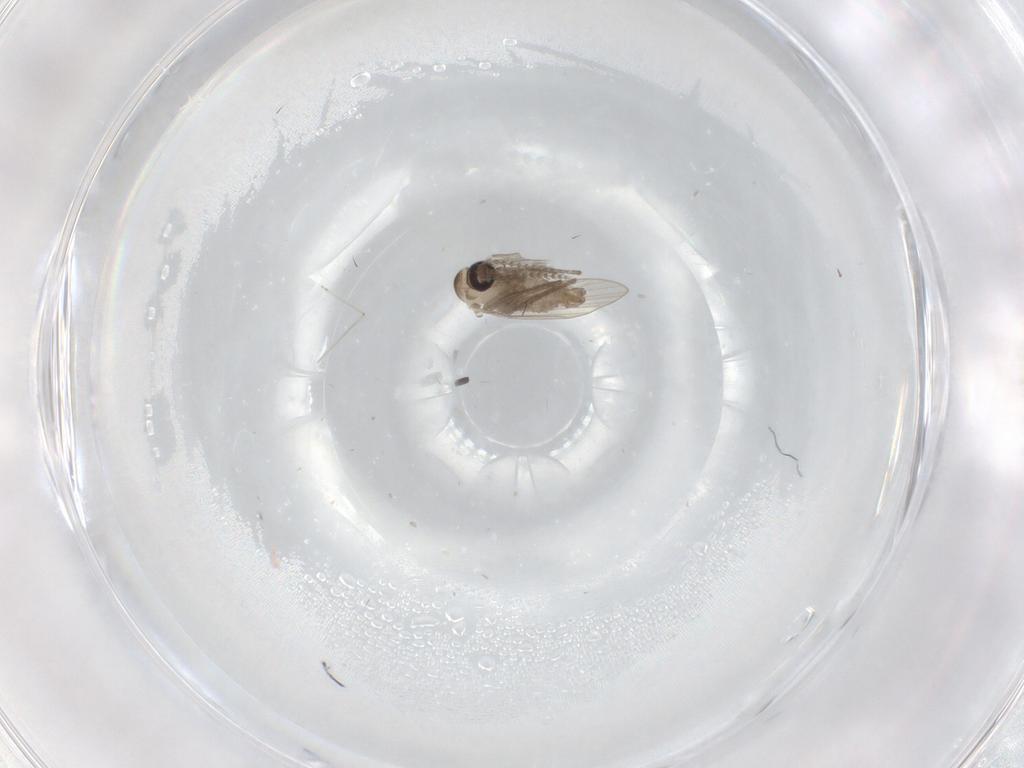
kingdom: Animalia
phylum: Arthropoda
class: Insecta
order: Diptera
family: Psychodidae
